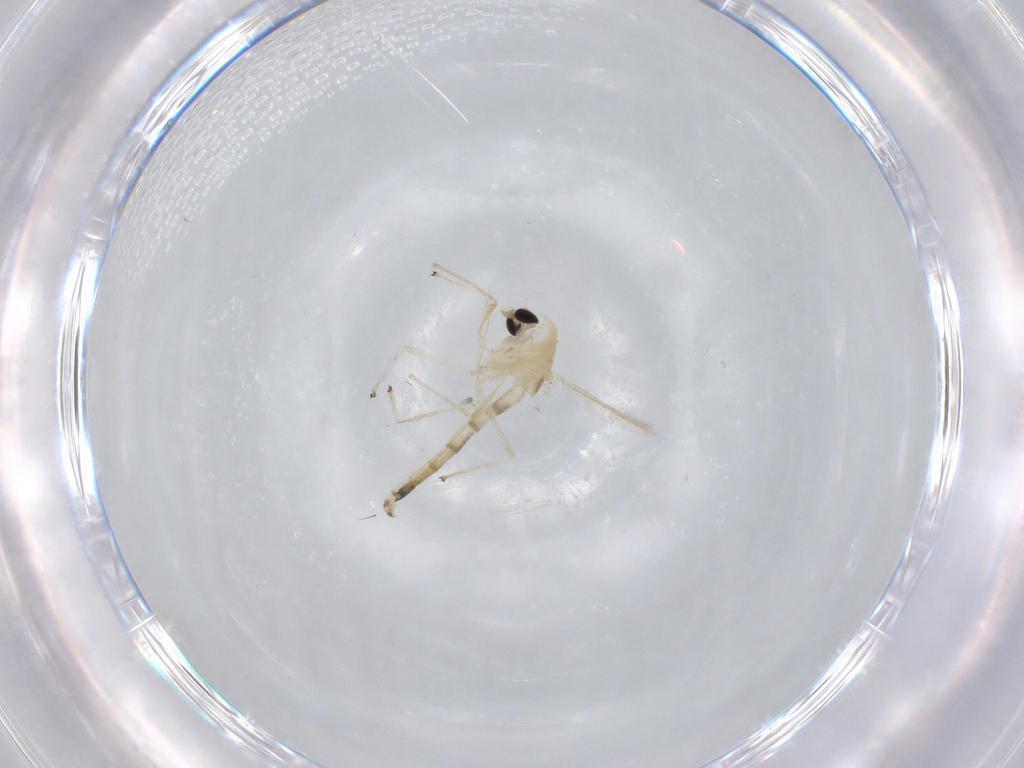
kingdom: Animalia
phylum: Arthropoda
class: Insecta
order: Diptera
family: Chironomidae
